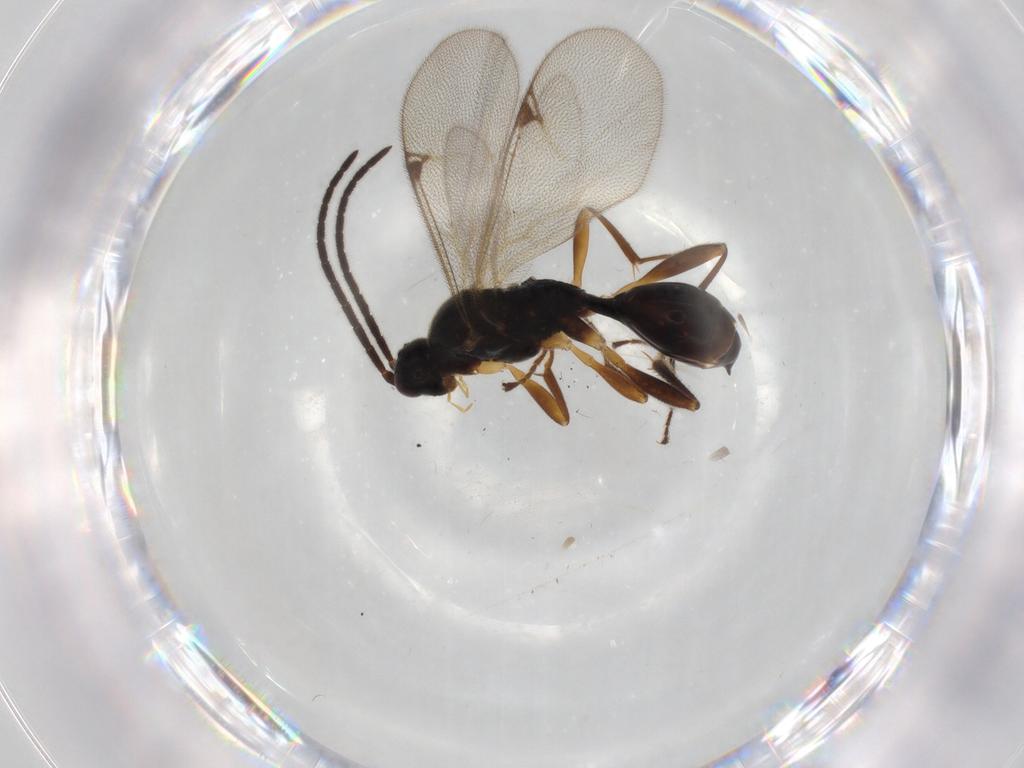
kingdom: Animalia
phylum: Arthropoda
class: Insecta
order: Hymenoptera
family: Proctotrupidae
